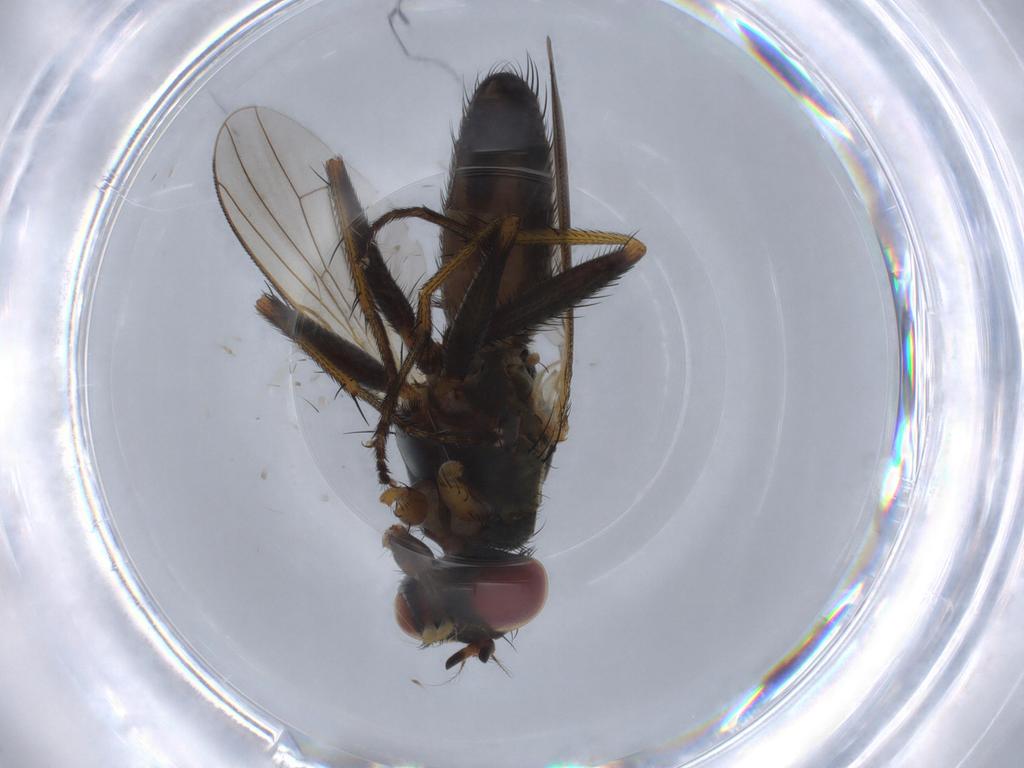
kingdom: Animalia
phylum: Arthropoda
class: Insecta
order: Diptera
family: Muscidae
